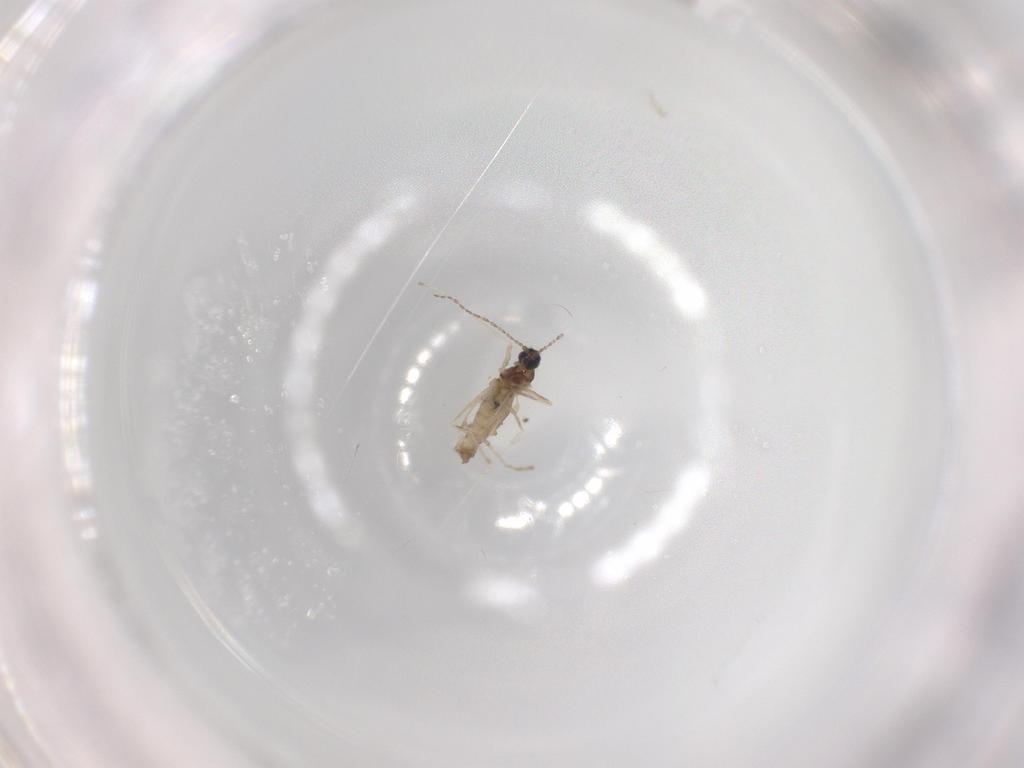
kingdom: Animalia
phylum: Arthropoda
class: Insecta
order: Diptera
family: Cecidomyiidae
